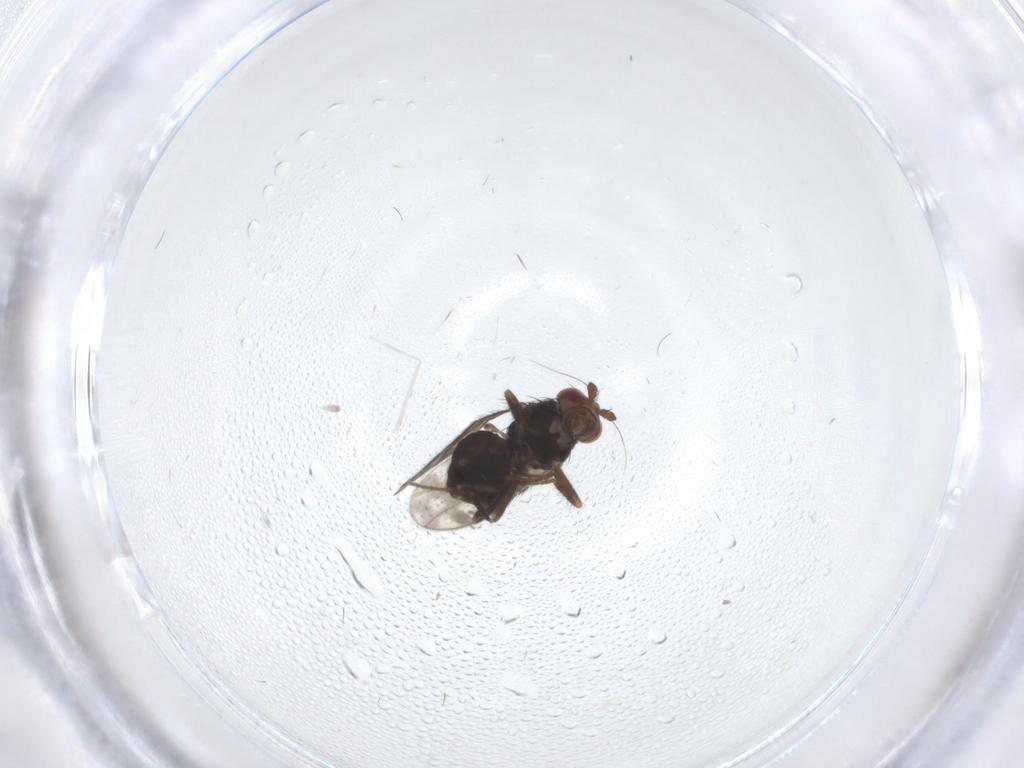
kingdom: Animalia
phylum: Arthropoda
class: Insecta
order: Diptera
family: Sphaeroceridae
